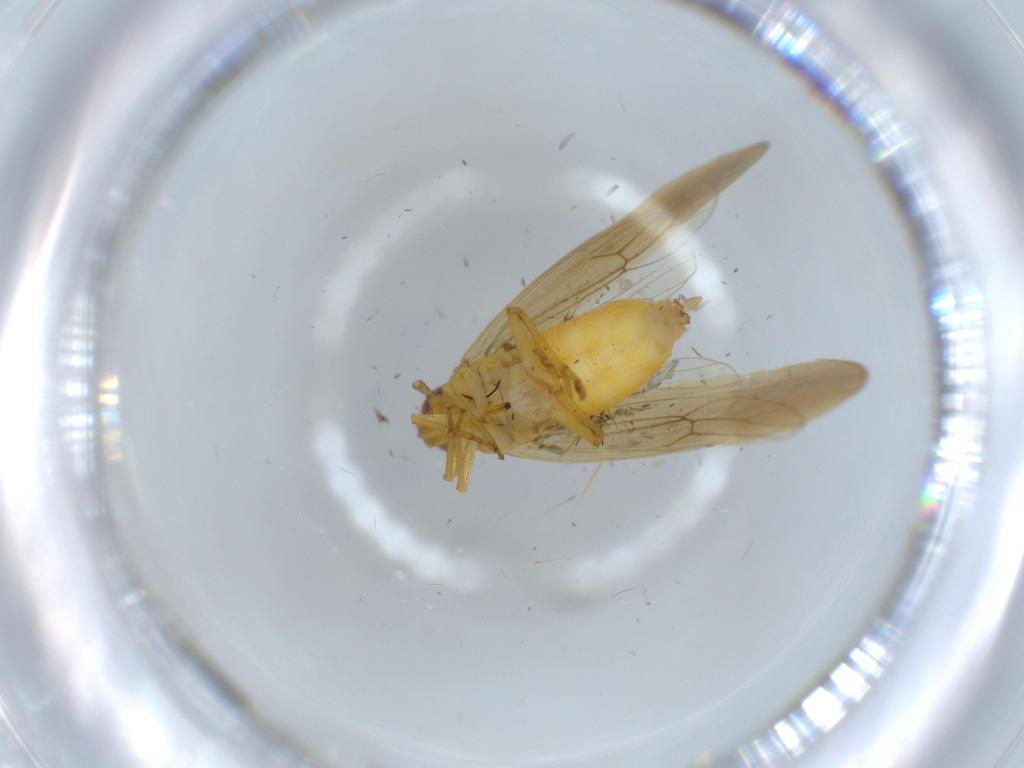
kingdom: Animalia
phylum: Arthropoda
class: Insecta
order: Hemiptera
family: Delphacidae
